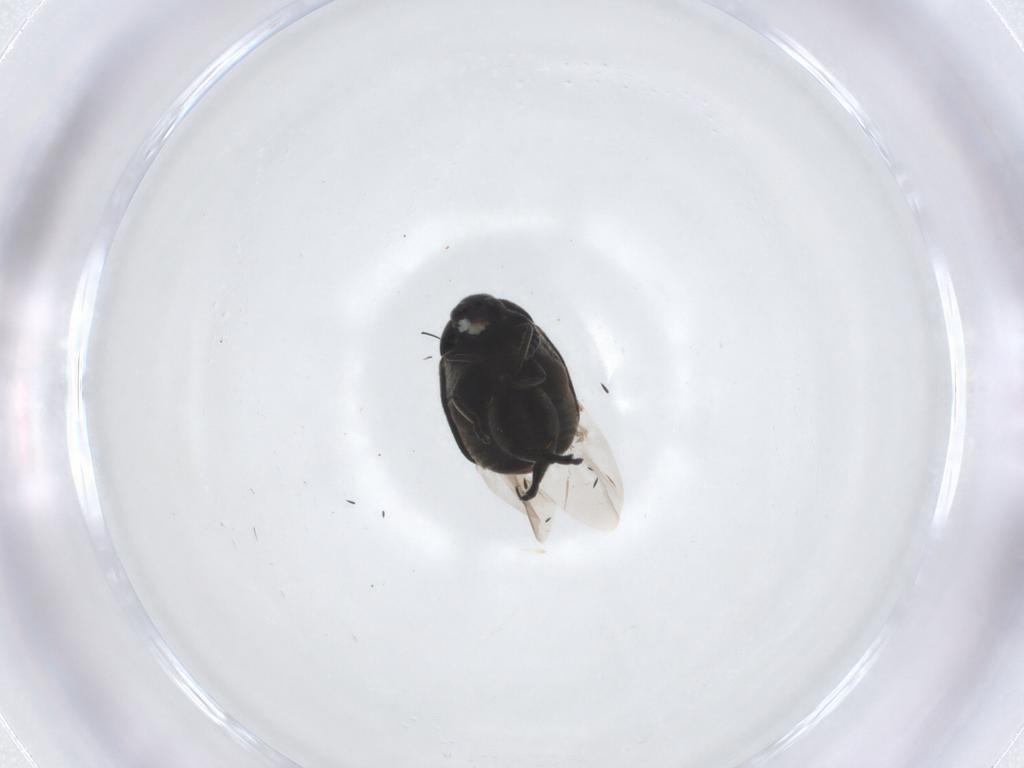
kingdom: Animalia
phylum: Arthropoda
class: Insecta
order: Coleoptera
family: Chrysomelidae
